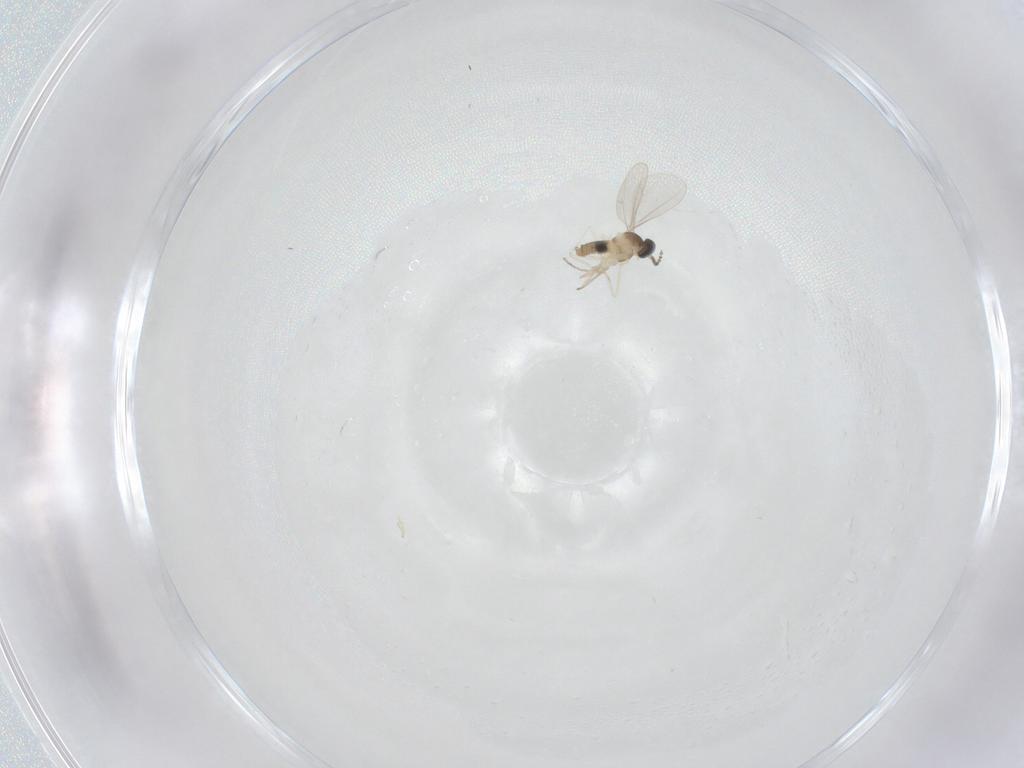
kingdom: Animalia
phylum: Arthropoda
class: Insecta
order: Diptera
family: Cecidomyiidae
